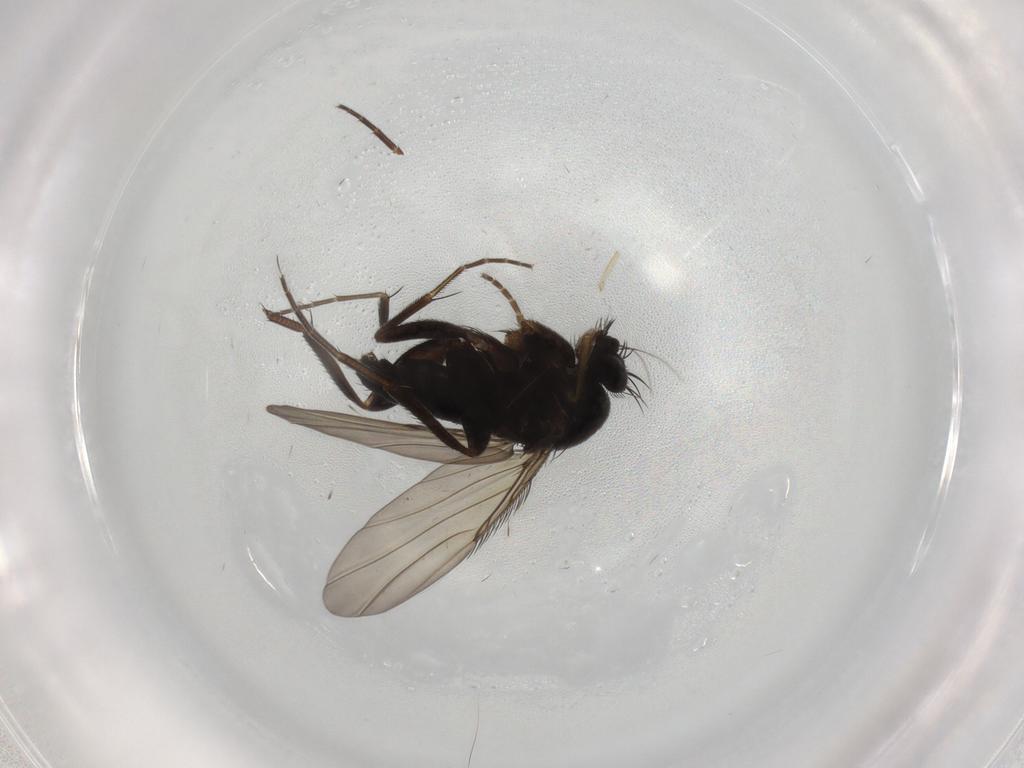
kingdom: Animalia
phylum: Arthropoda
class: Insecta
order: Diptera
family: Phoridae
